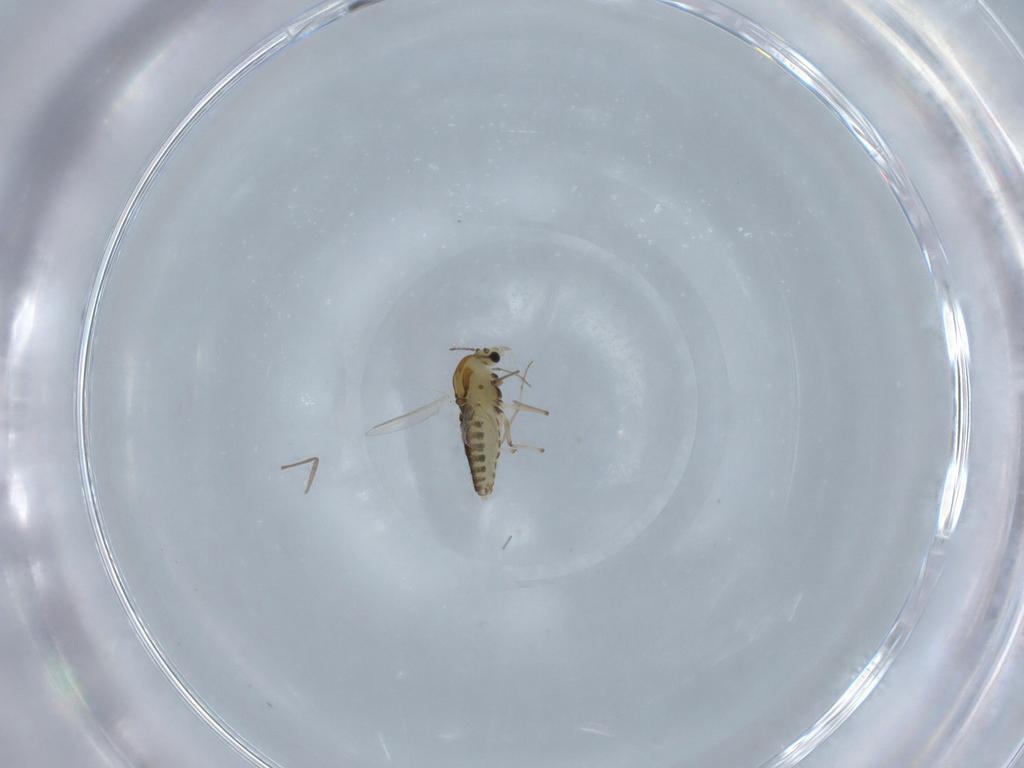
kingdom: Animalia
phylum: Arthropoda
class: Insecta
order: Diptera
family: Chironomidae
